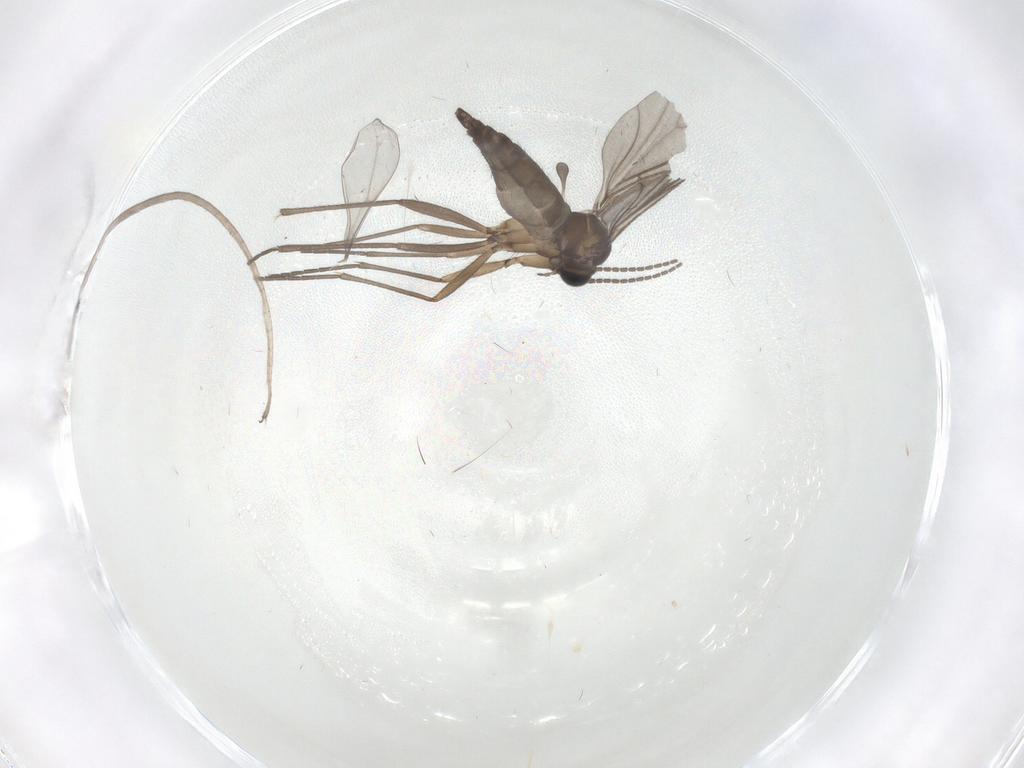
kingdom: Animalia
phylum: Arthropoda
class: Insecta
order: Diptera
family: Sciaridae
